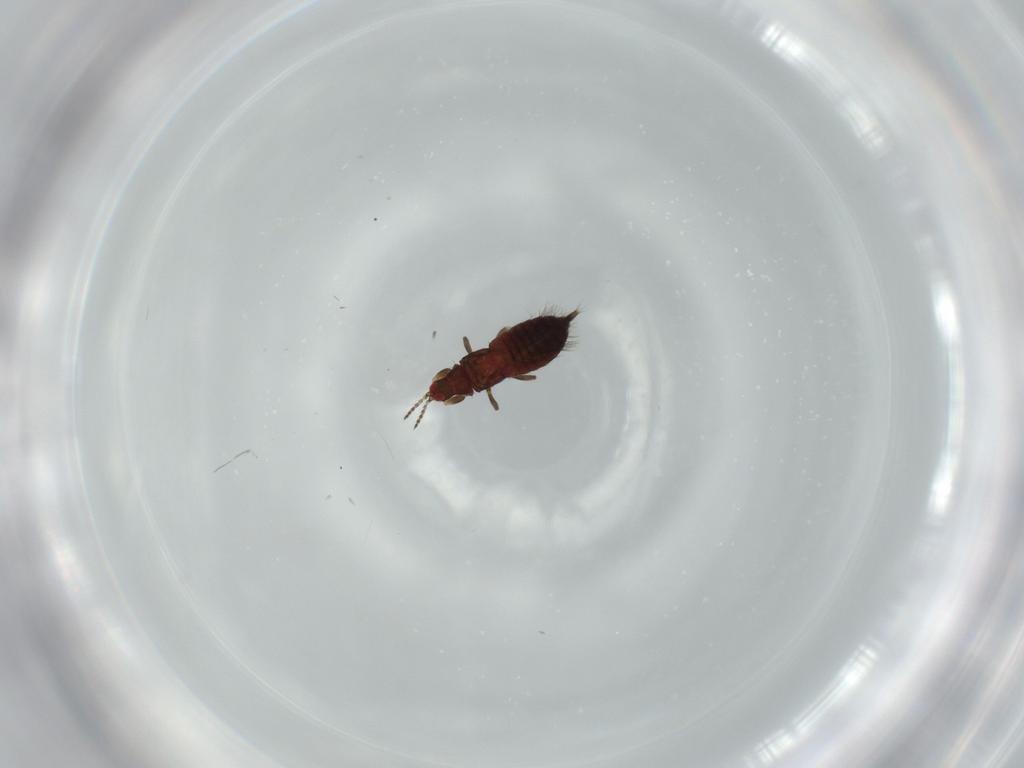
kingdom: Animalia
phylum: Arthropoda
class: Insecta
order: Thysanoptera
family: Phlaeothripidae
